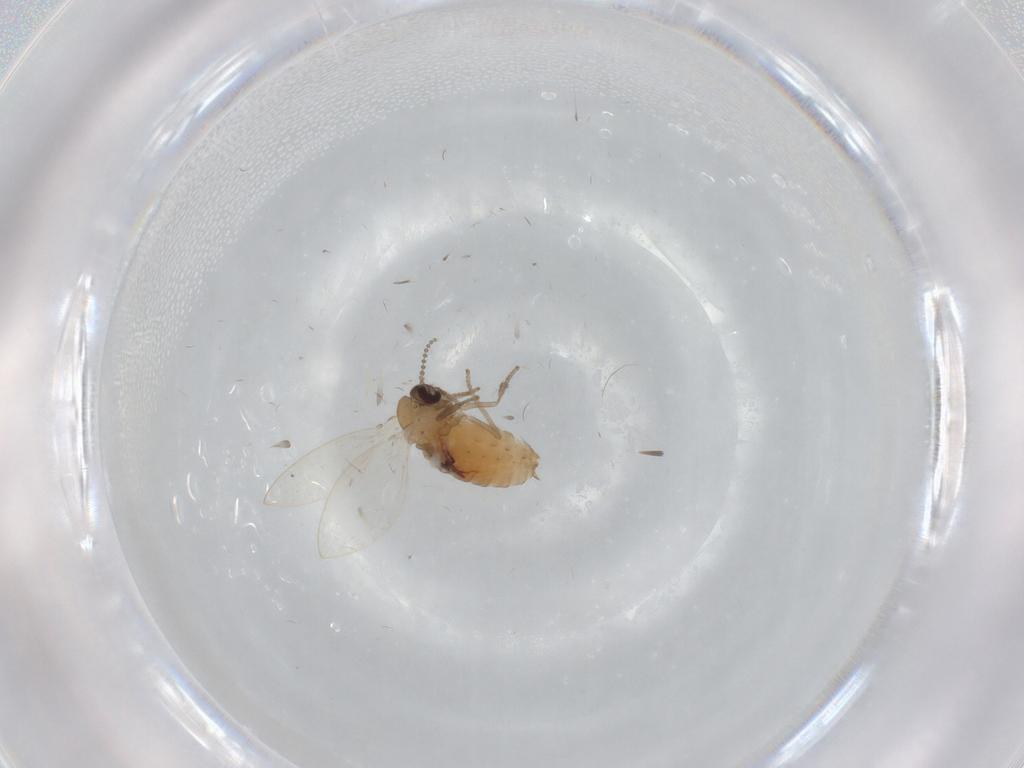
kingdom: Animalia
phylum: Arthropoda
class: Insecta
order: Diptera
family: Psychodidae
